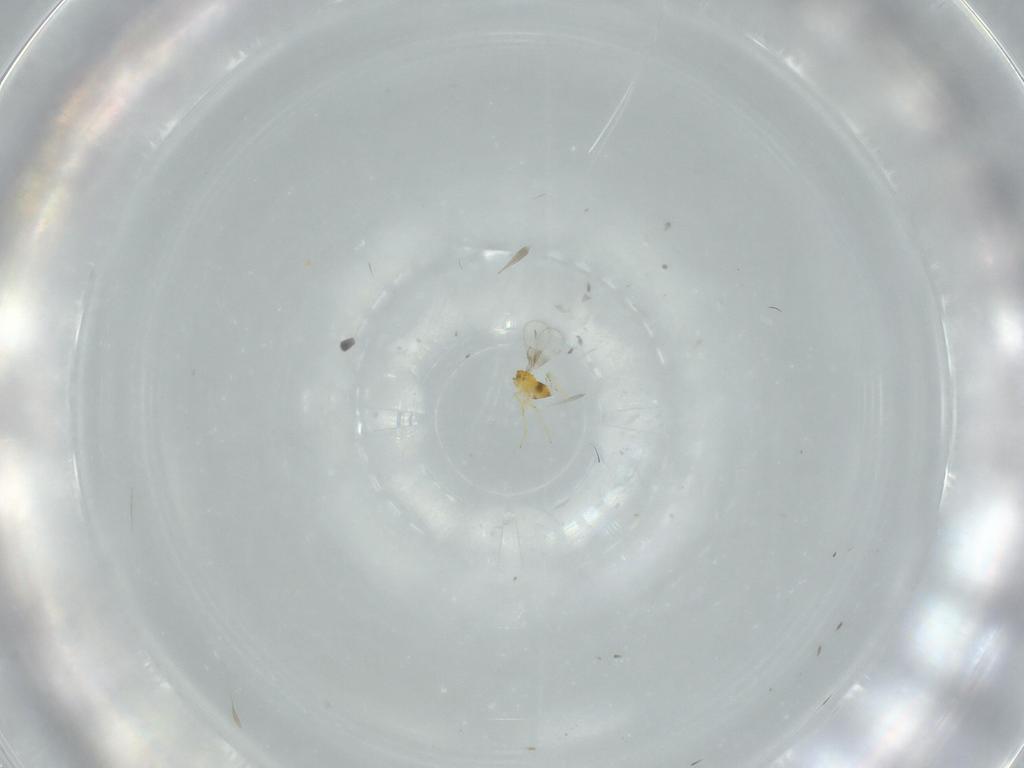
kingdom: Animalia
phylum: Arthropoda
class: Insecta
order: Hymenoptera
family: Trichogrammatidae
